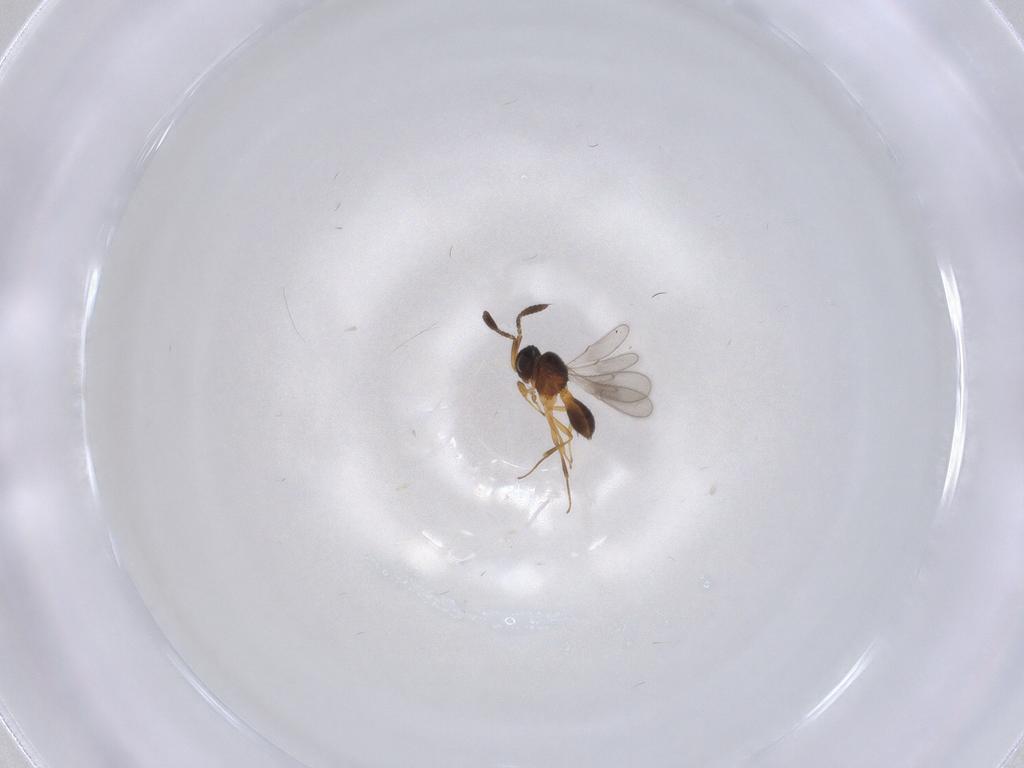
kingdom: Animalia
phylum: Arthropoda
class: Insecta
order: Hymenoptera
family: Scelionidae
